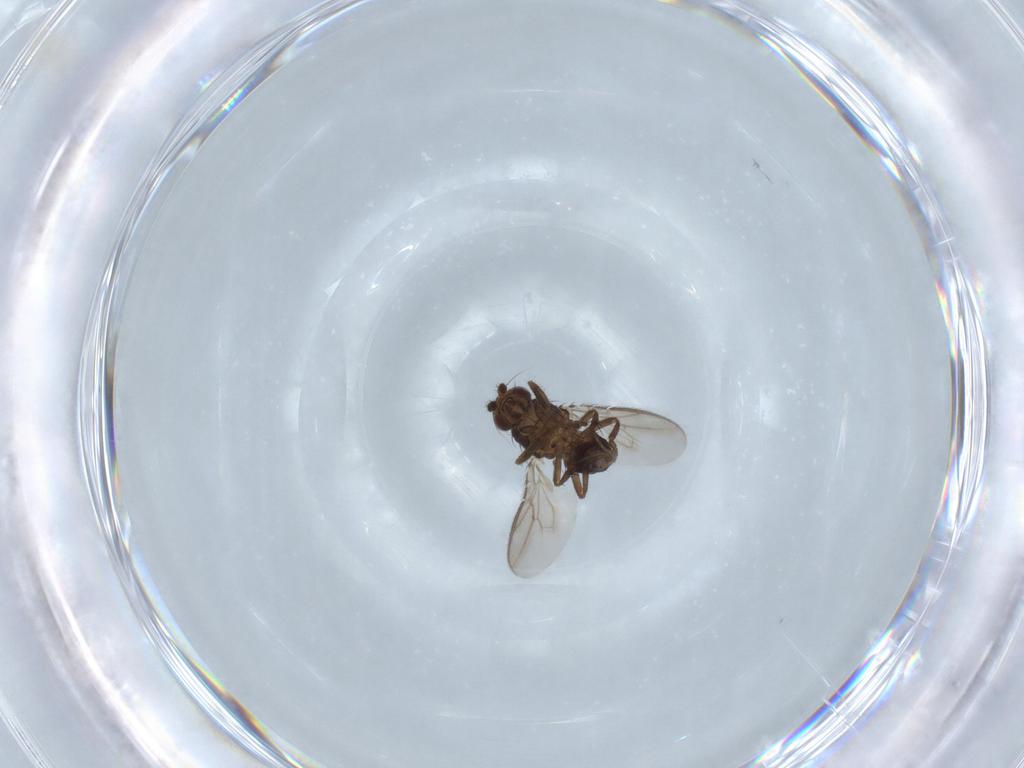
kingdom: Animalia
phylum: Arthropoda
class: Insecta
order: Diptera
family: Sphaeroceridae
